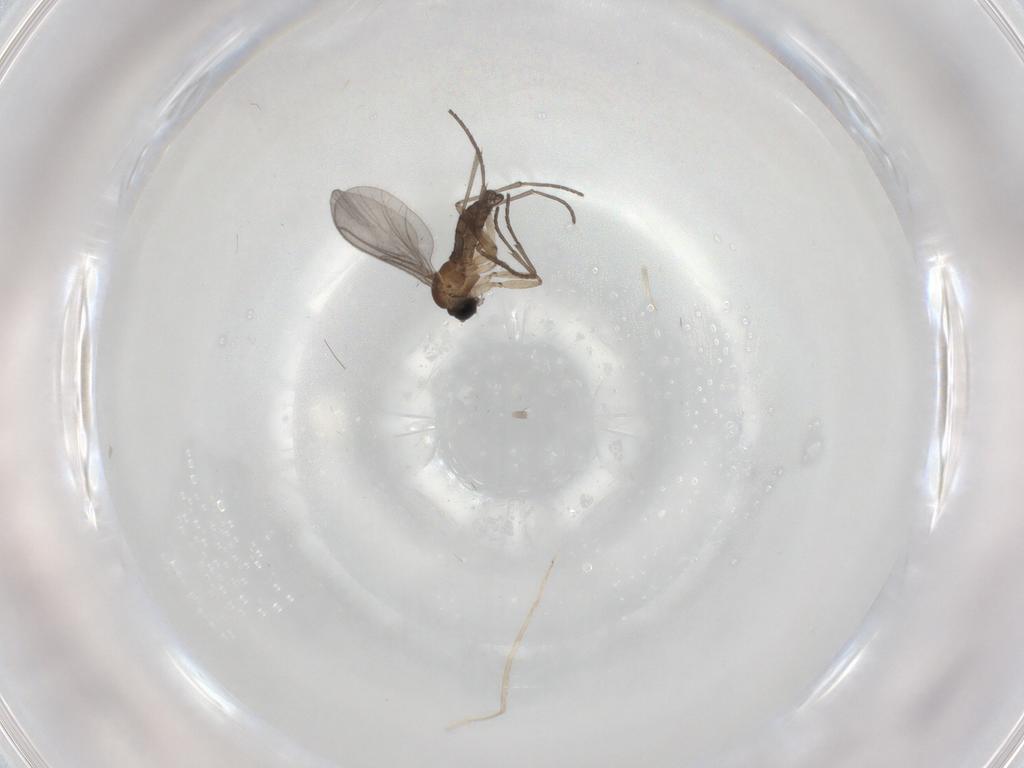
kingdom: Animalia
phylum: Arthropoda
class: Insecta
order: Diptera
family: Sciaridae
